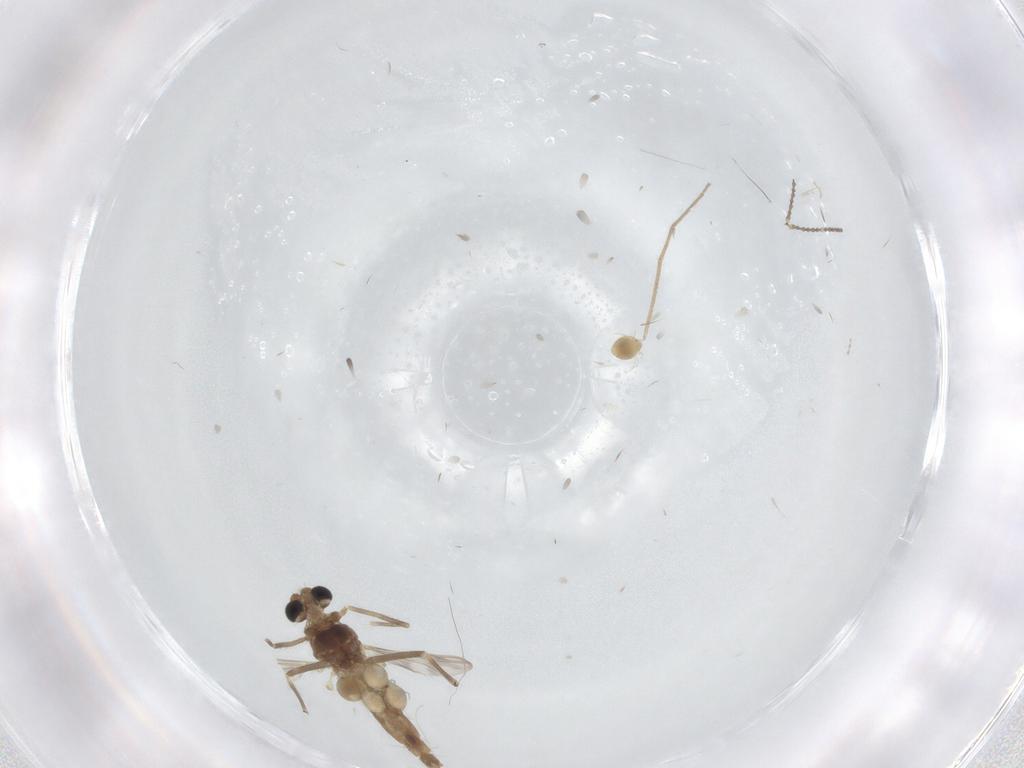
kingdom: Animalia
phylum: Arthropoda
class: Insecta
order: Diptera
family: Chironomidae
